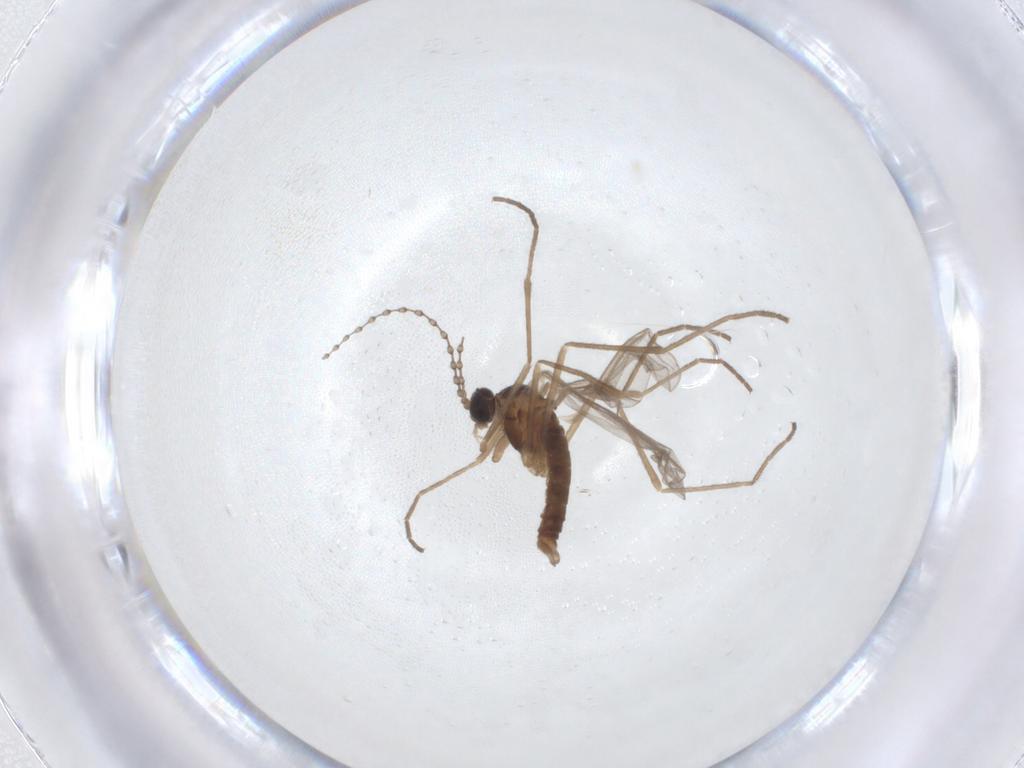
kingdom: Animalia
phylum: Arthropoda
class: Insecta
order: Diptera
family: Cecidomyiidae
